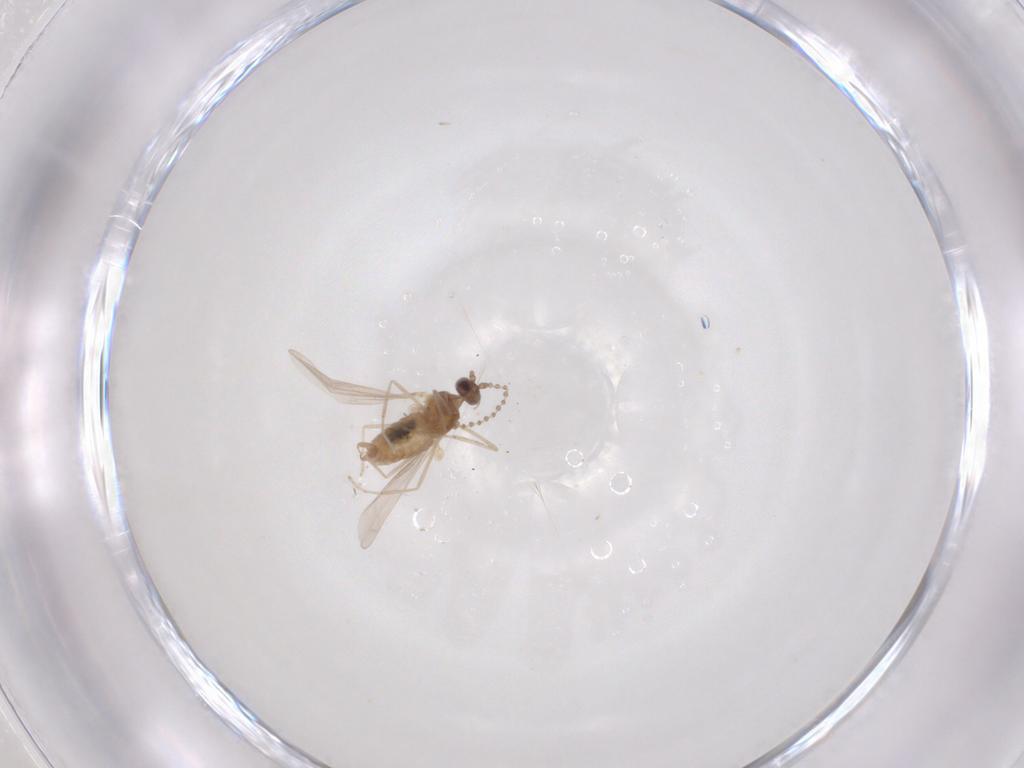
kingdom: Animalia
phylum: Arthropoda
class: Insecta
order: Diptera
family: Cecidomyiidae
